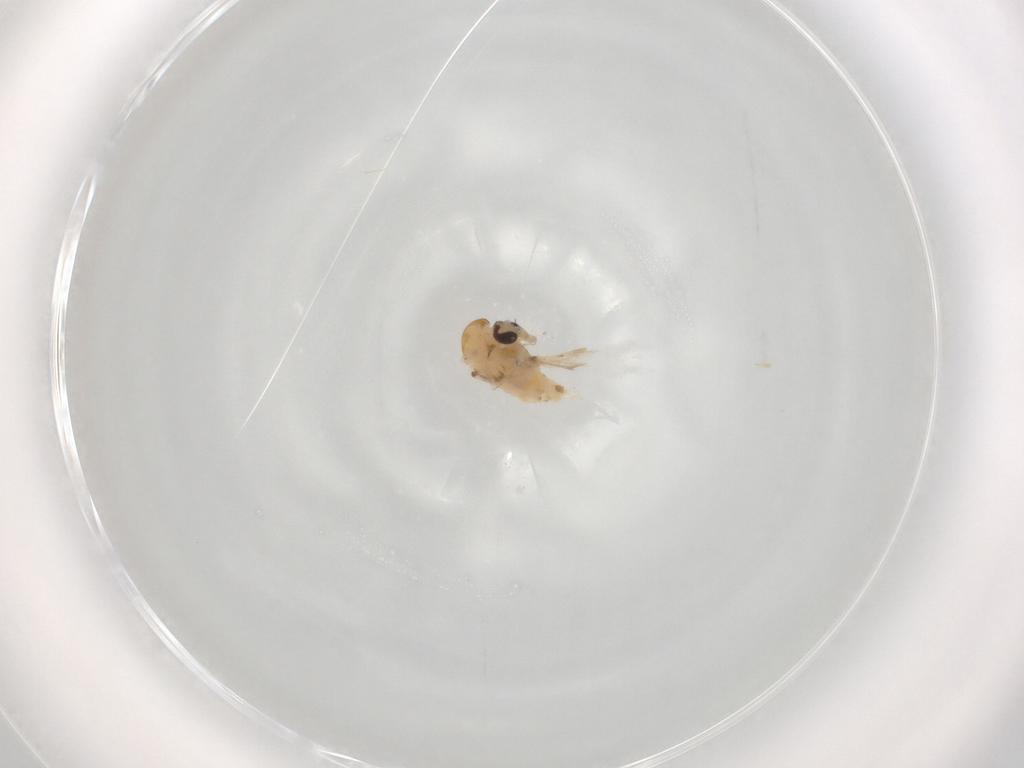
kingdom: Animalia
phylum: Arthropoda
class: Insecta
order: Diptera
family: Chironomidae
